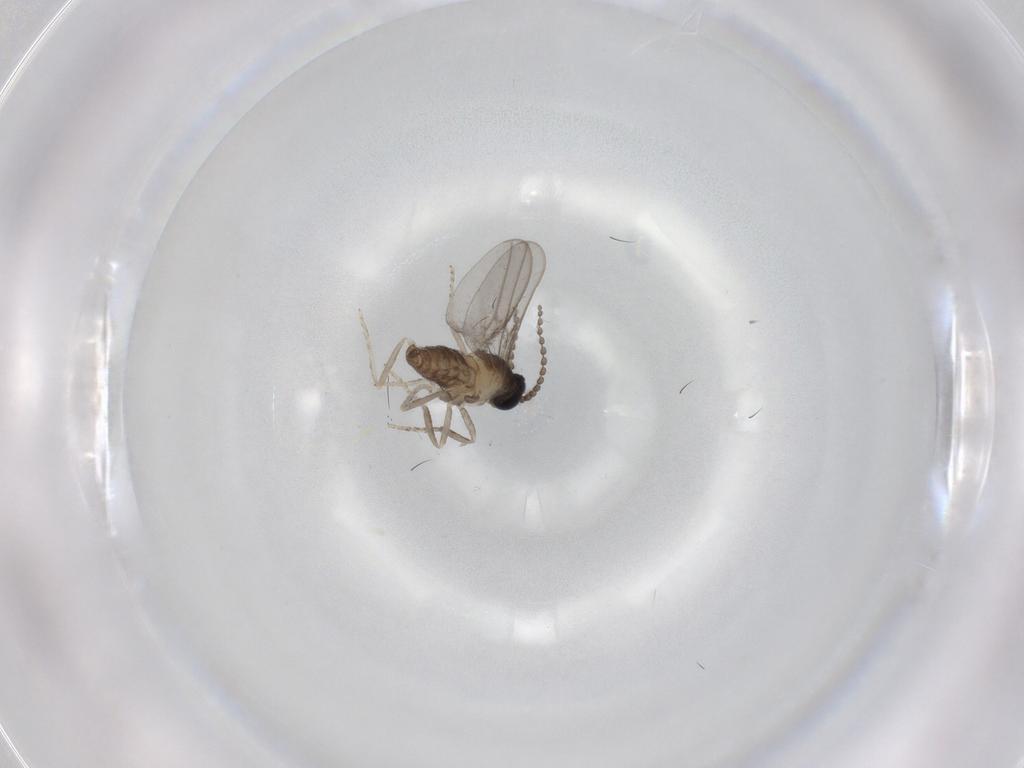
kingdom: Animalia
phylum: Arthropoda
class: Insecta
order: Diptera
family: Cecidomyiidae
